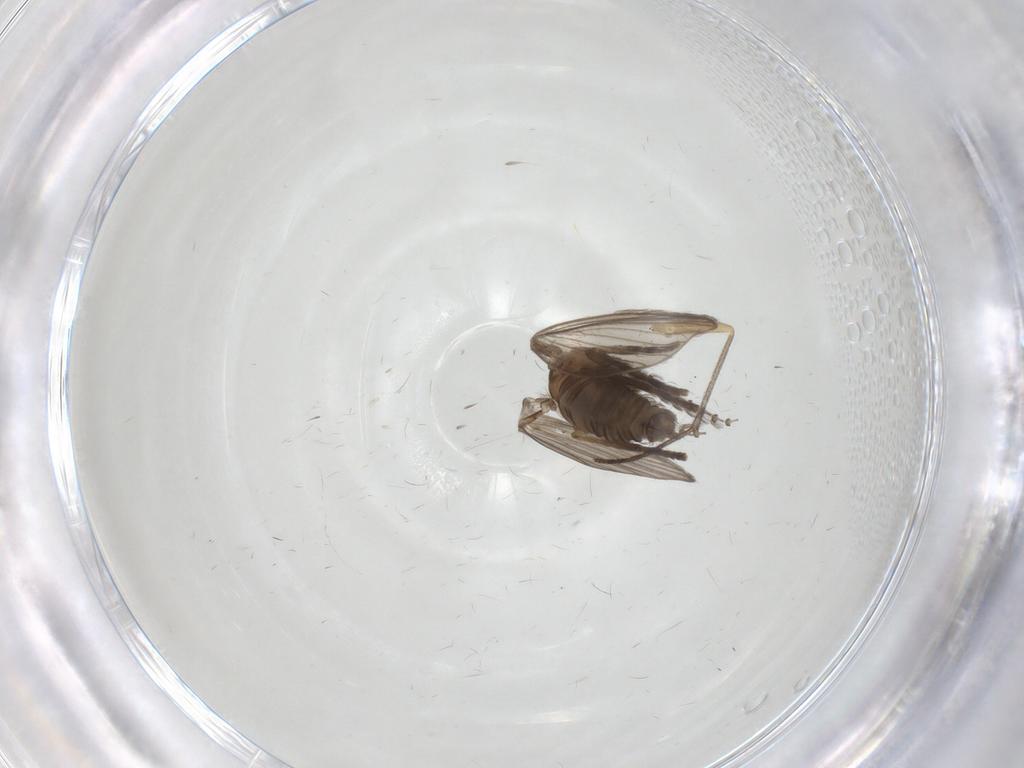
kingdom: Animalia
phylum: Arthropoda
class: Insecta
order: Diptera
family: Psychodidae
